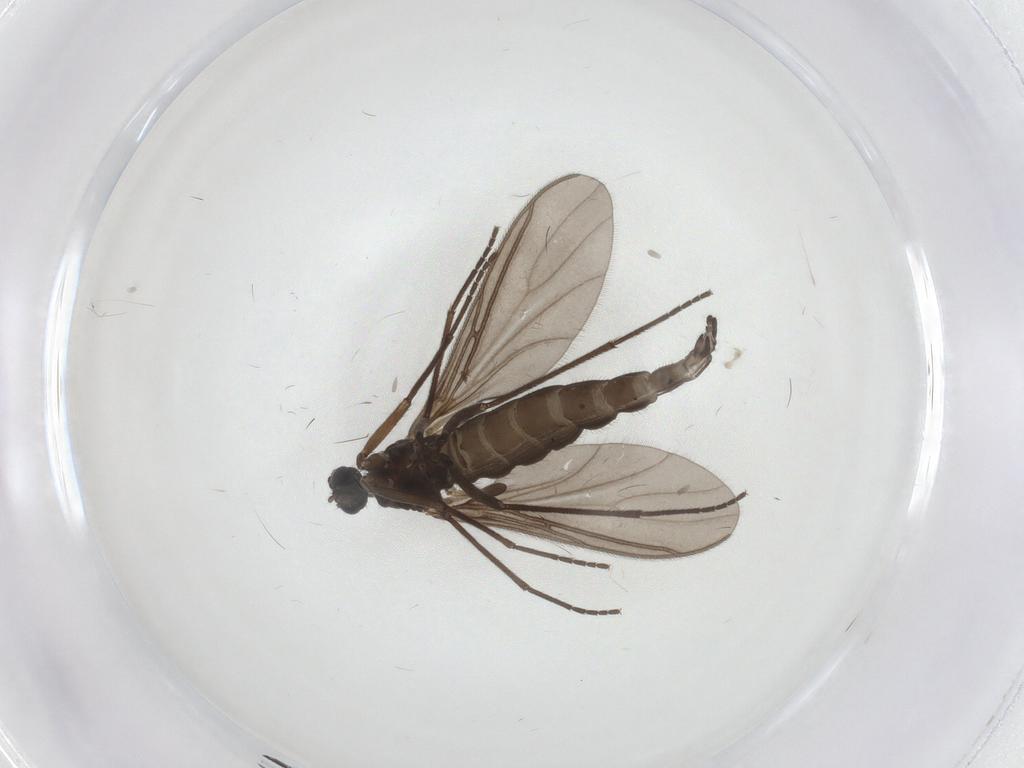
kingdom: Animalia
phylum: Arthropoda
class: Insecta
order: Diptera
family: Sciaridae
